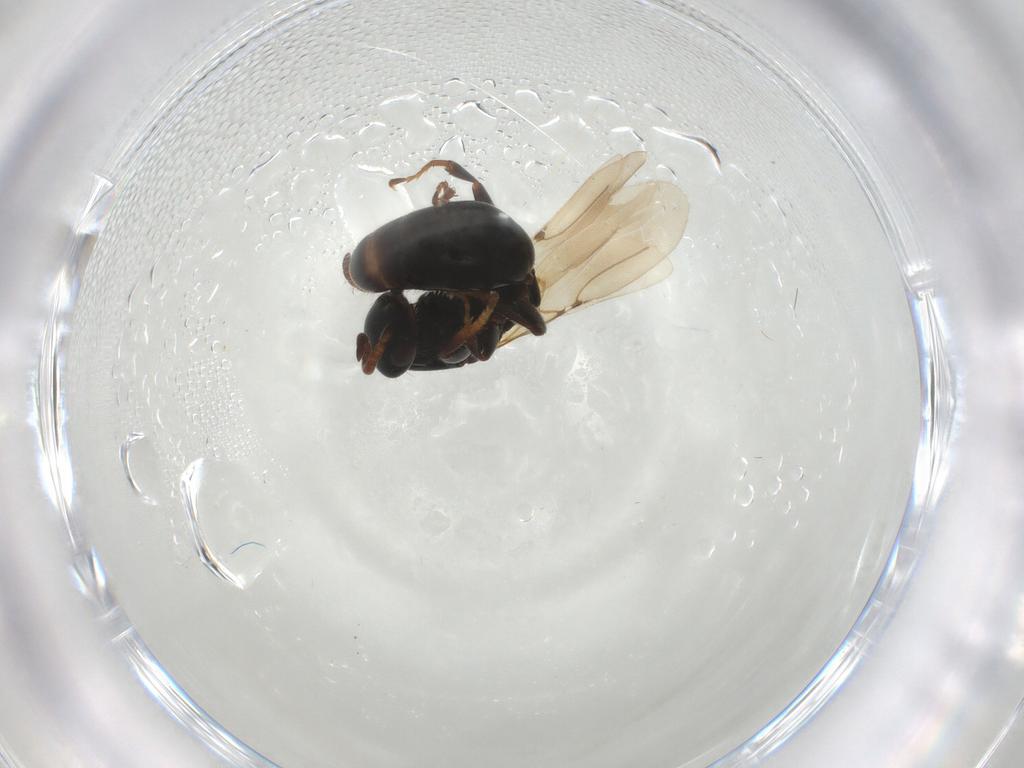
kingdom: Animalia
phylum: Arthropoda
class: Insecta
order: Hymenoptera
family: Bethylidae
